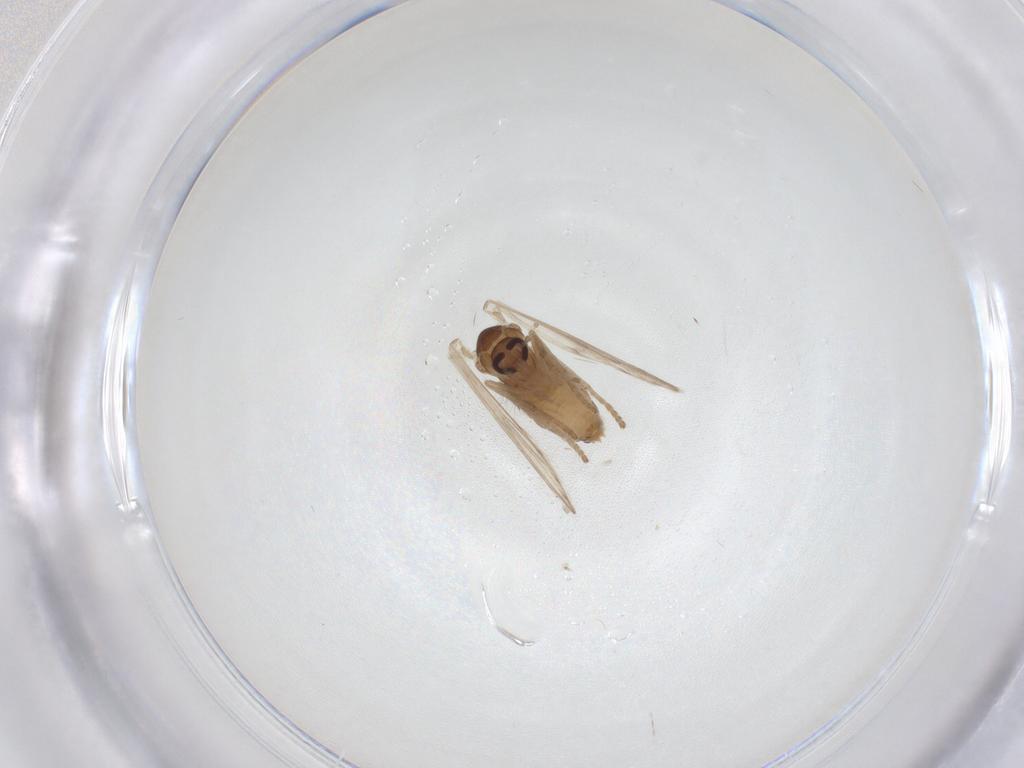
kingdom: Animalia
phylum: Arthropoda
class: Insecta
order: Diptera
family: Psychodidae
